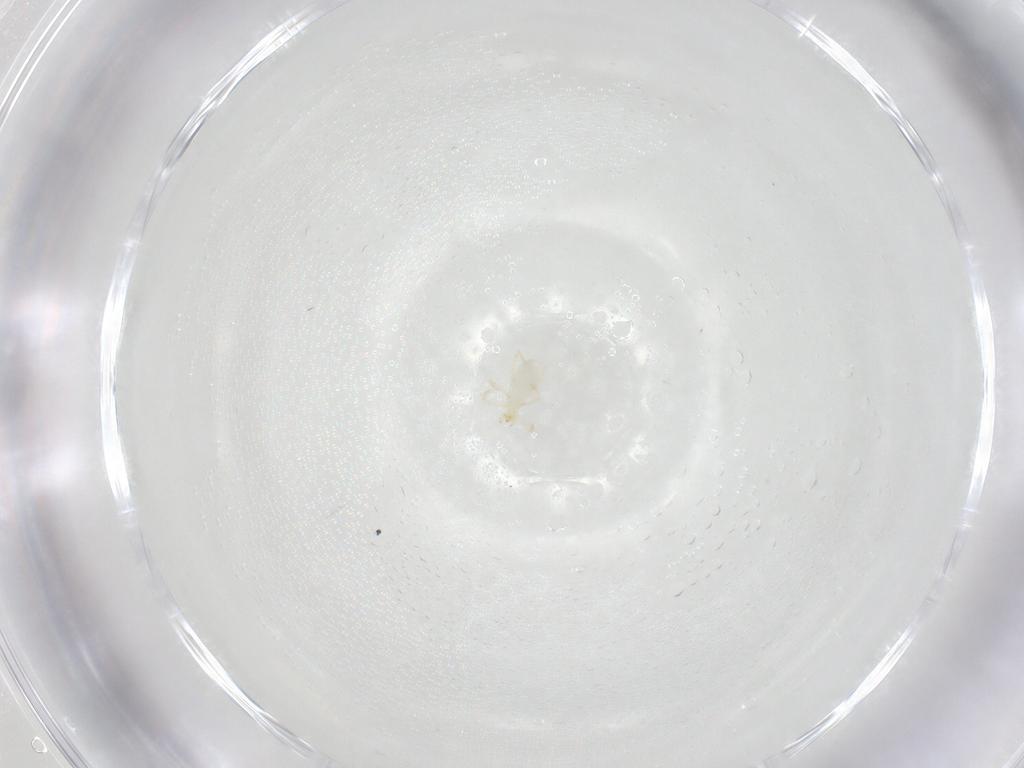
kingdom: Animalia
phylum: Arthropoda
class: Arachnida
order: Trombidiformes
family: Erythraeidae
